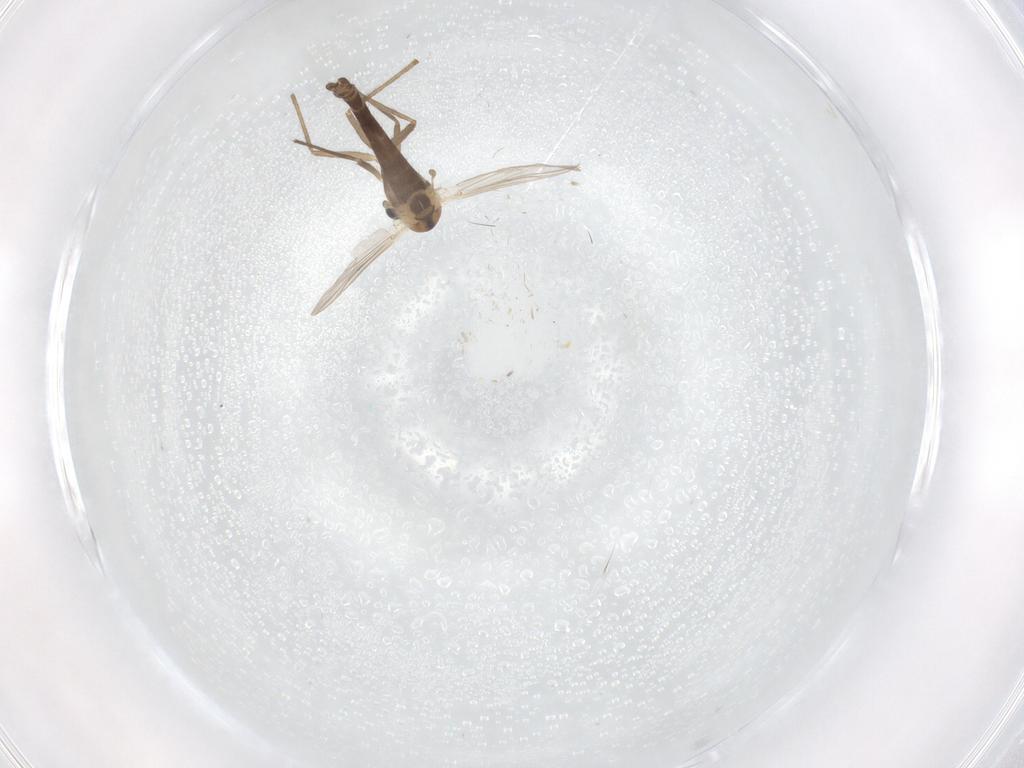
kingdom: Animalia
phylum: Arthropoda
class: Insecta
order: Diptera
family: Chironomidae
